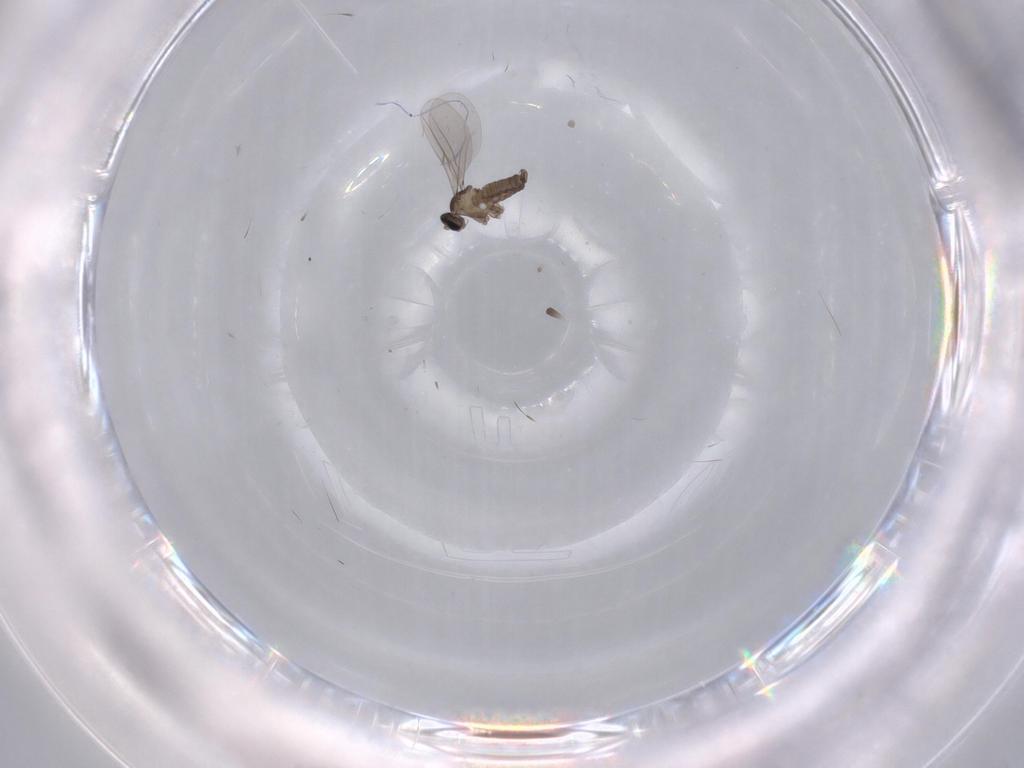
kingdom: Animalia
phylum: Arthropoda
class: Insecta
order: Diptera
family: Cecidomyiidae
